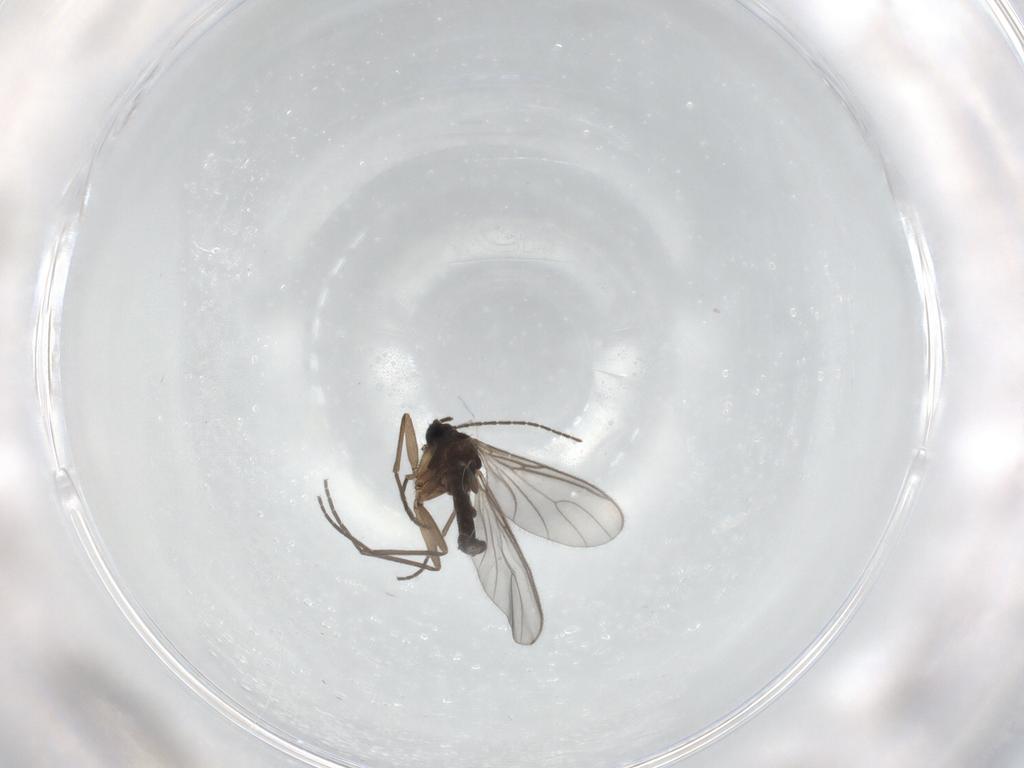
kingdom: Animalia
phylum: Arthropoda
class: Insecta
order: Diptera
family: Sciaridae
